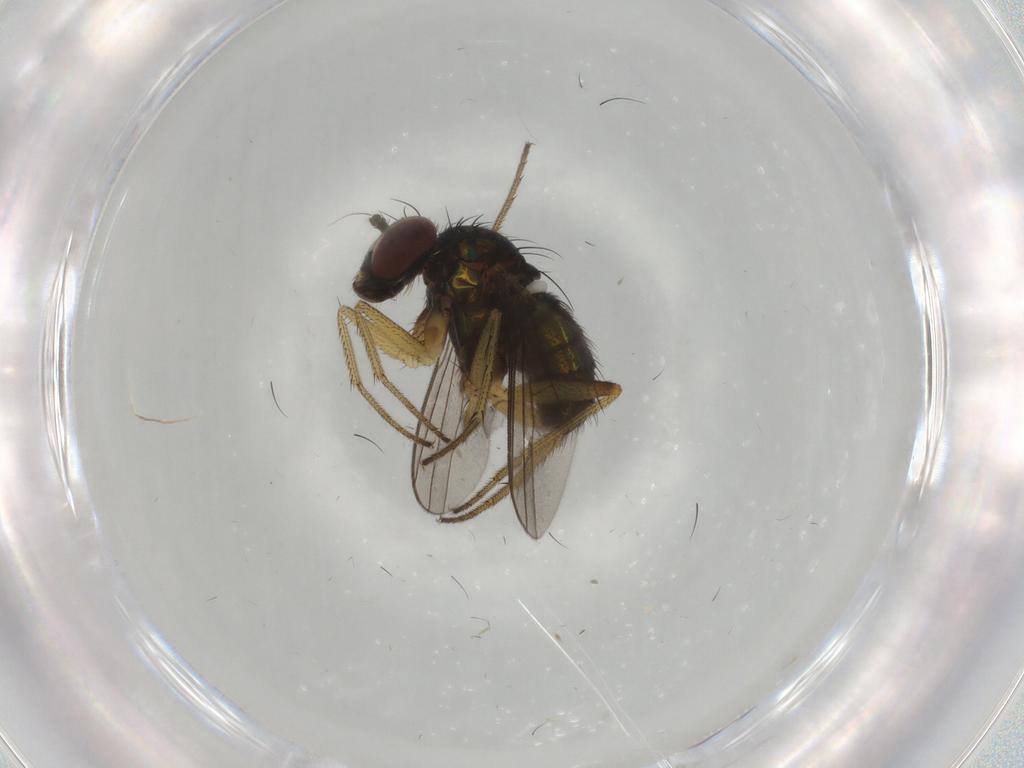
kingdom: Animalia
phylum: Arthropoda
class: Insecta
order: Diptera
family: Dolichopodidae
